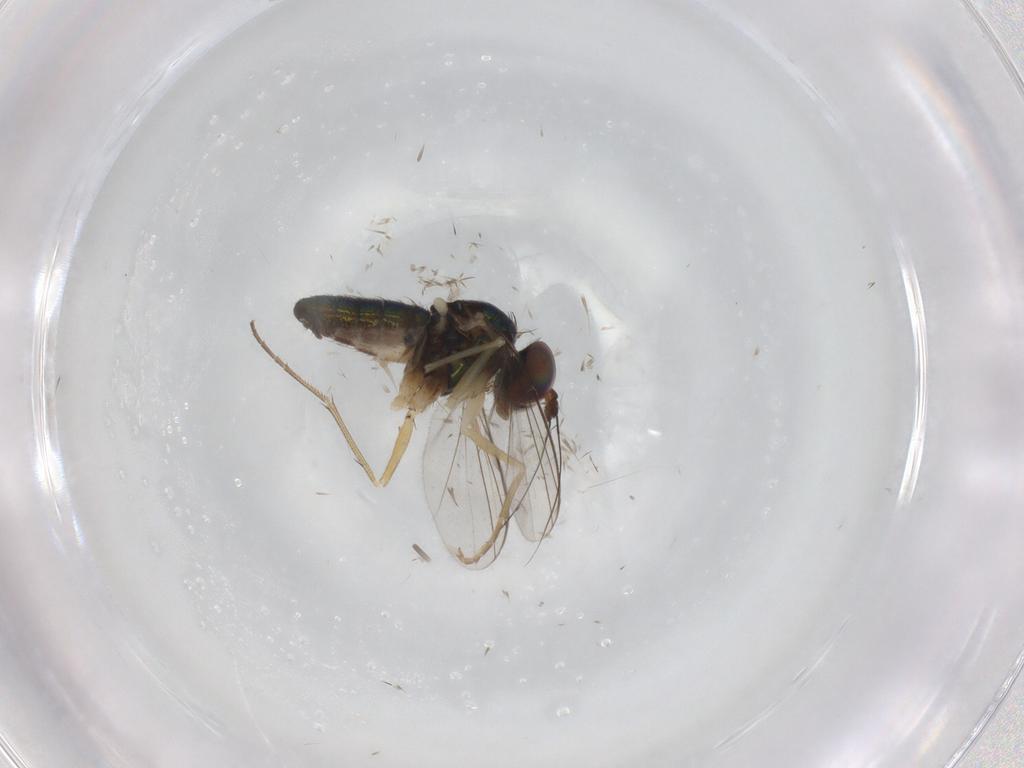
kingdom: Animalia
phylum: Arthropoda
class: Insecta
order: Diptera
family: Dolichopodidae
